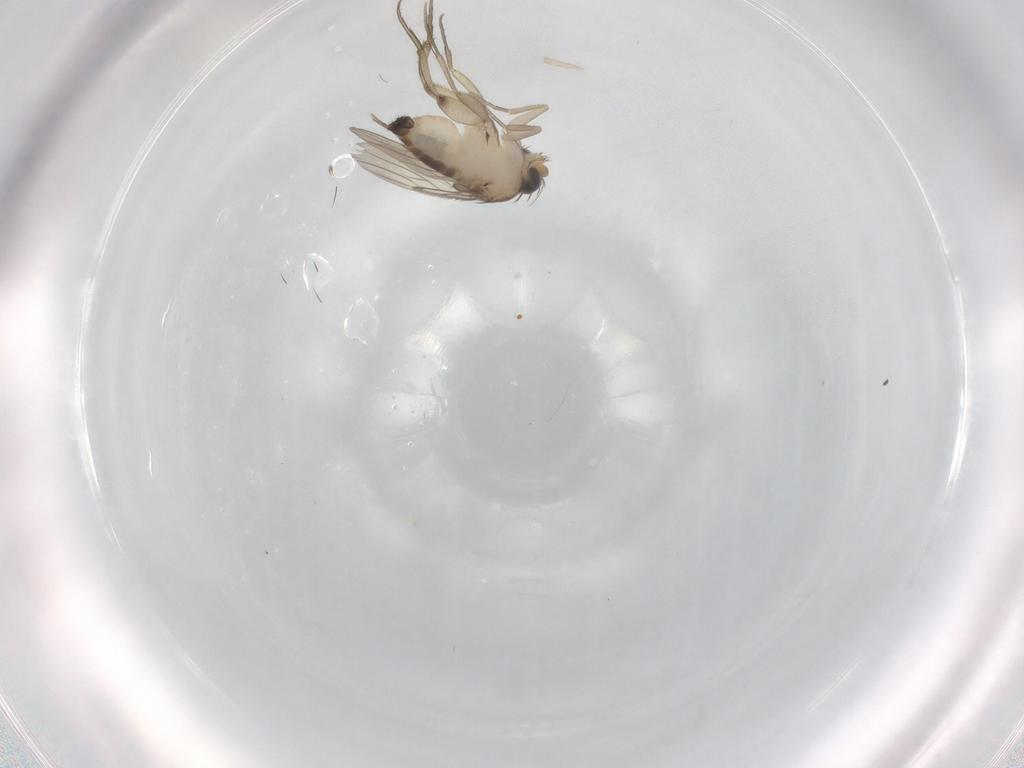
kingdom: Animalia
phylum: Arthropoda
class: Insecta
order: Diptera
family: Phoridae
